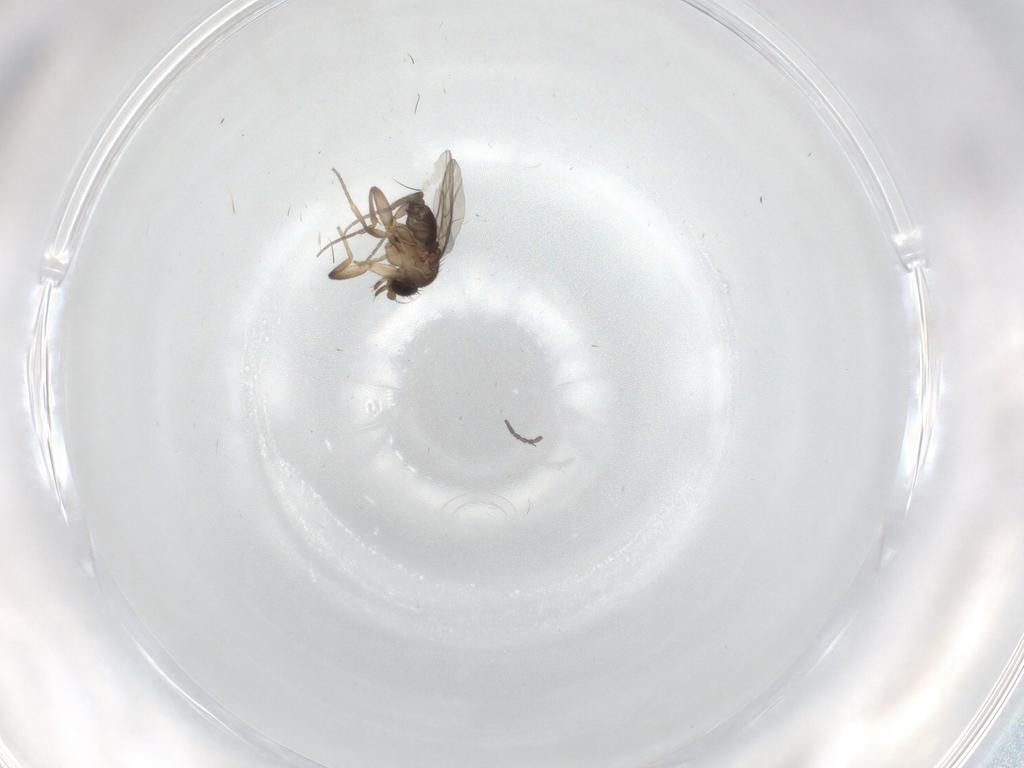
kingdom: Animalia
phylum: Arthropoda
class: Insecta
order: Diptera
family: Sciaridae
